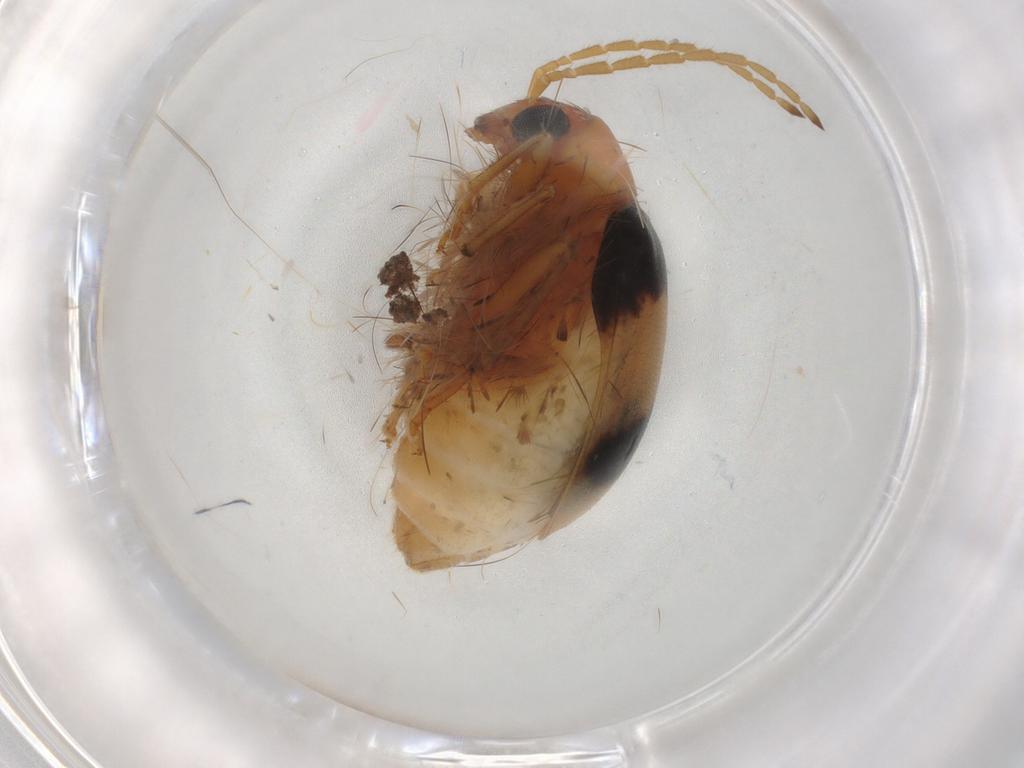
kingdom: Animalia
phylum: Arthropoda
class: Insecta
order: Coleoptera
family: Chrysomelidae
